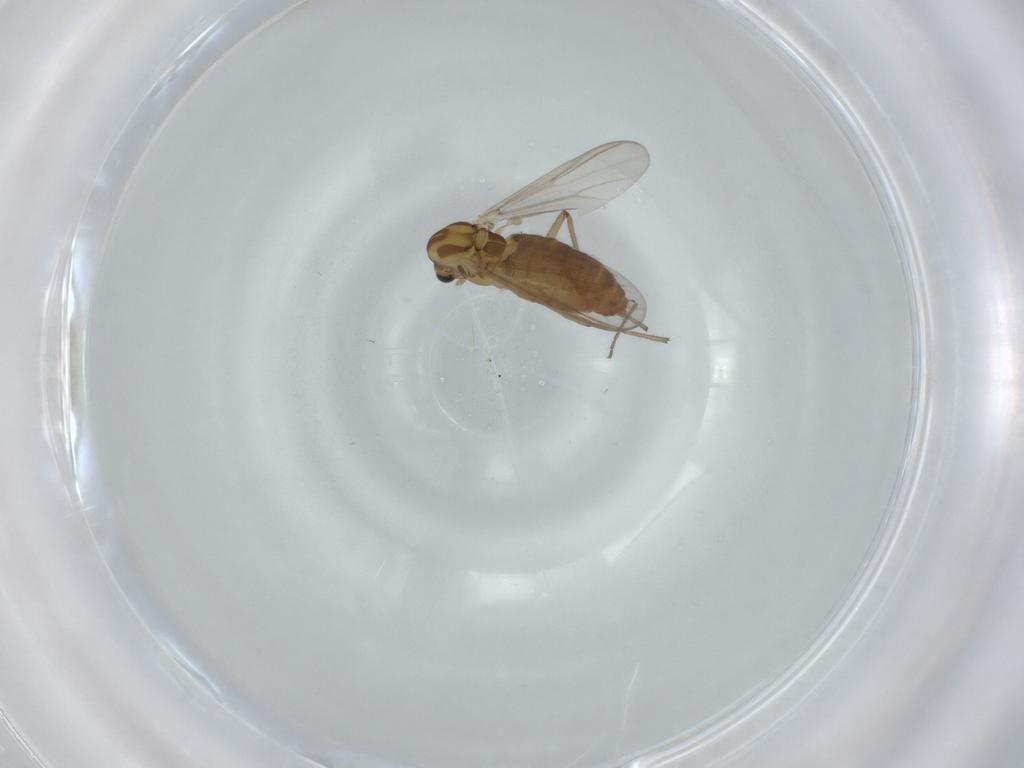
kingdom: Animalia
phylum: Arthropoda
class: Insecta
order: Diptera
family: Chironomidae
